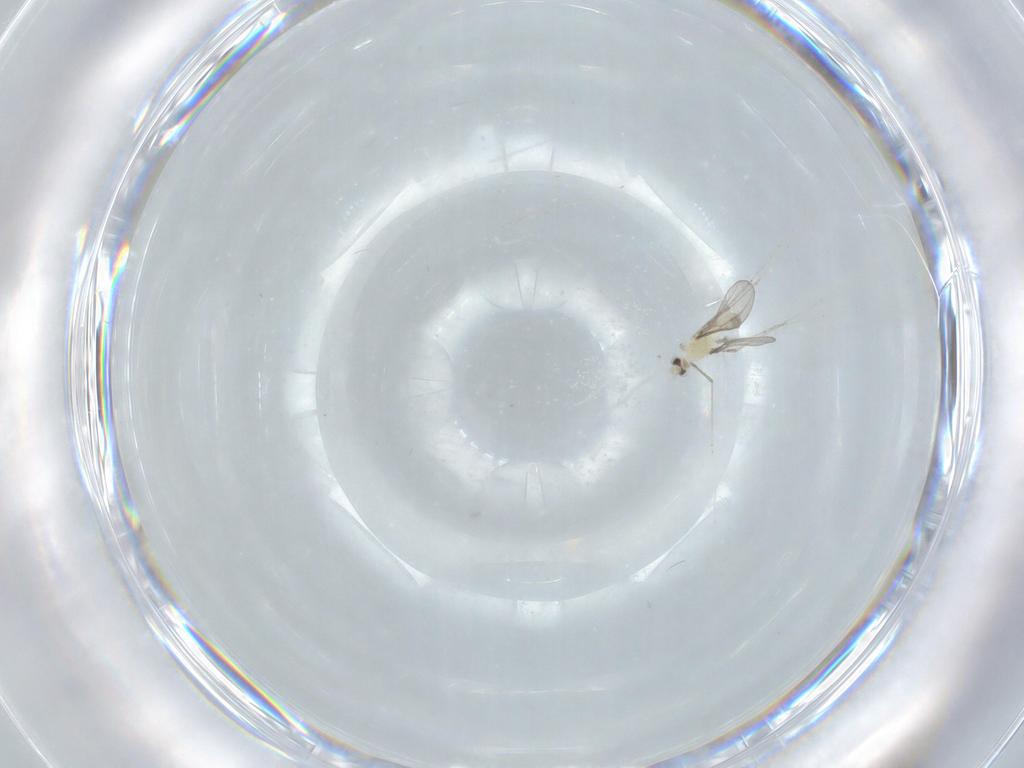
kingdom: Animalia
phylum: Arthropoda
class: Insecta
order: Diptera
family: Cecidomyiidae
